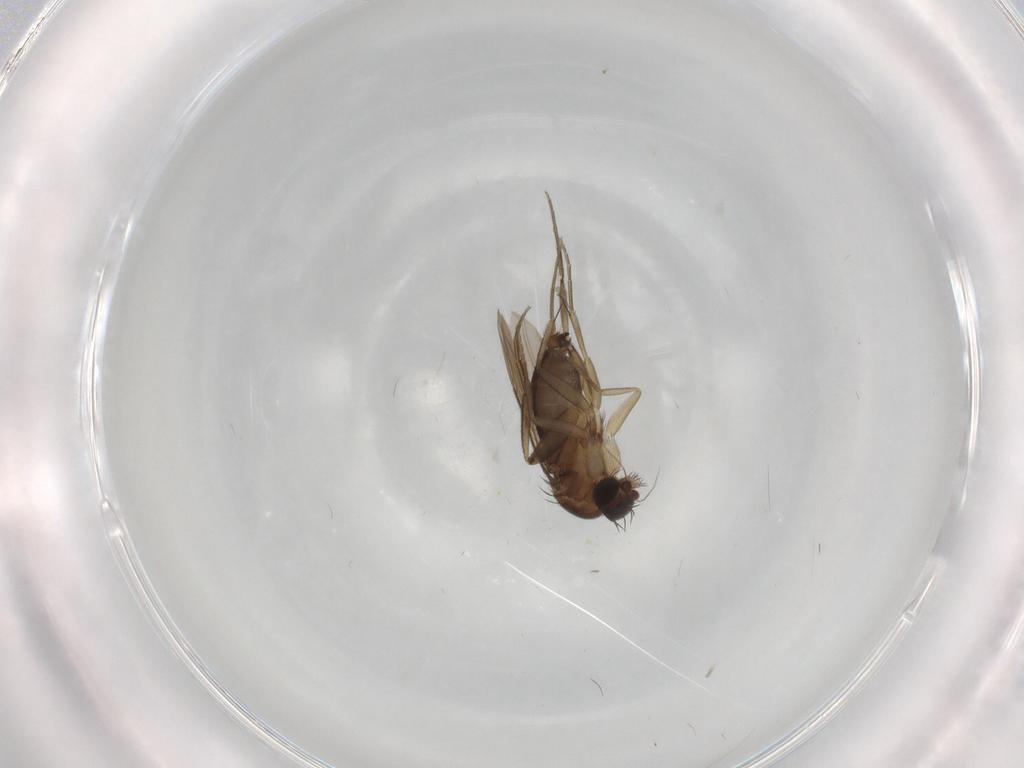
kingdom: Animalia
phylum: Arthropoda
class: Insecta
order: Diptera
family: Phoridae
